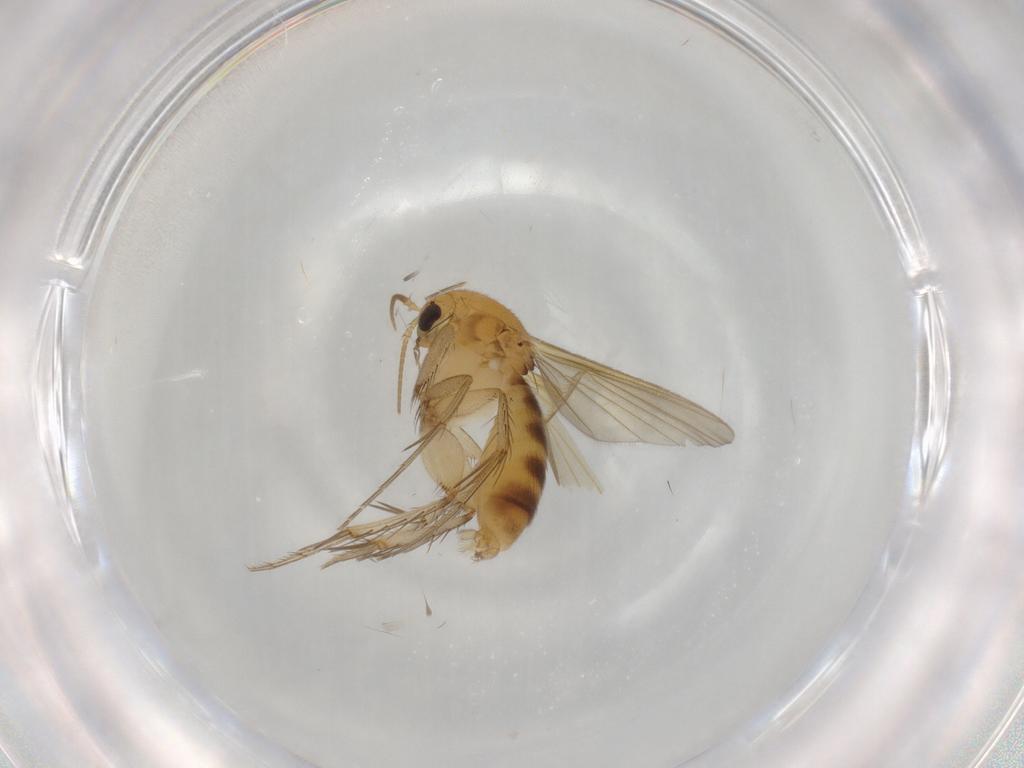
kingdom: Animalia
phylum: Arthropoda
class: Insecta
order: Diptera
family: Mycetophilidae
